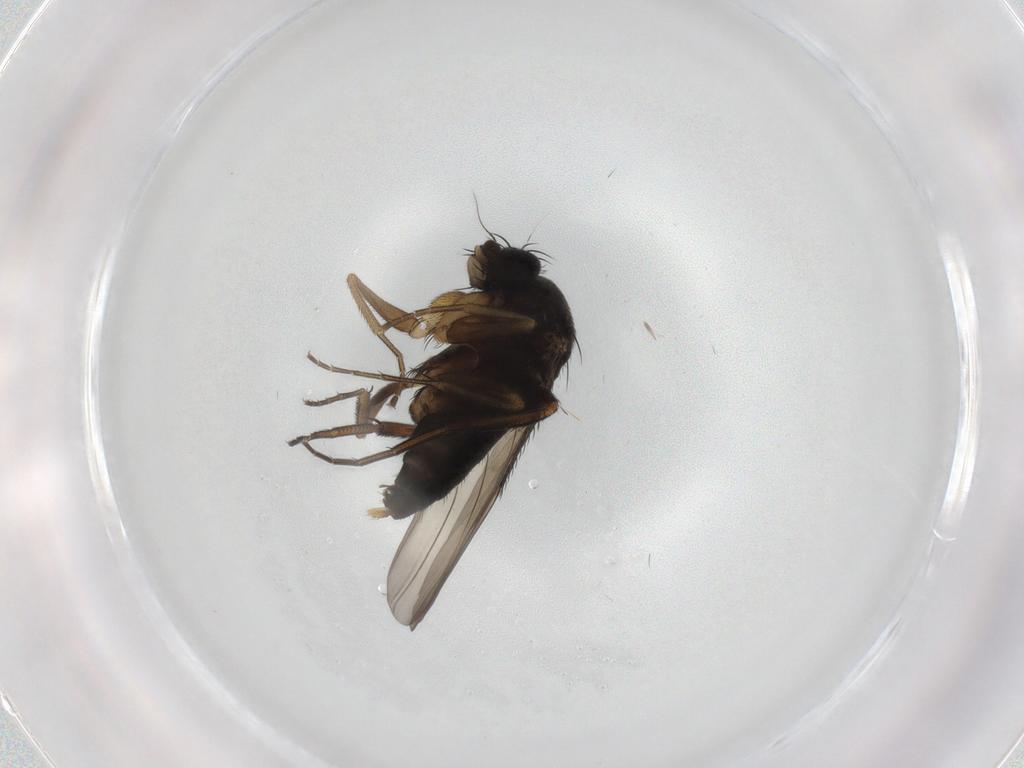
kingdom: Animalia
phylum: Arthropoda
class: Insecta
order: Diptera
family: Phoridae
